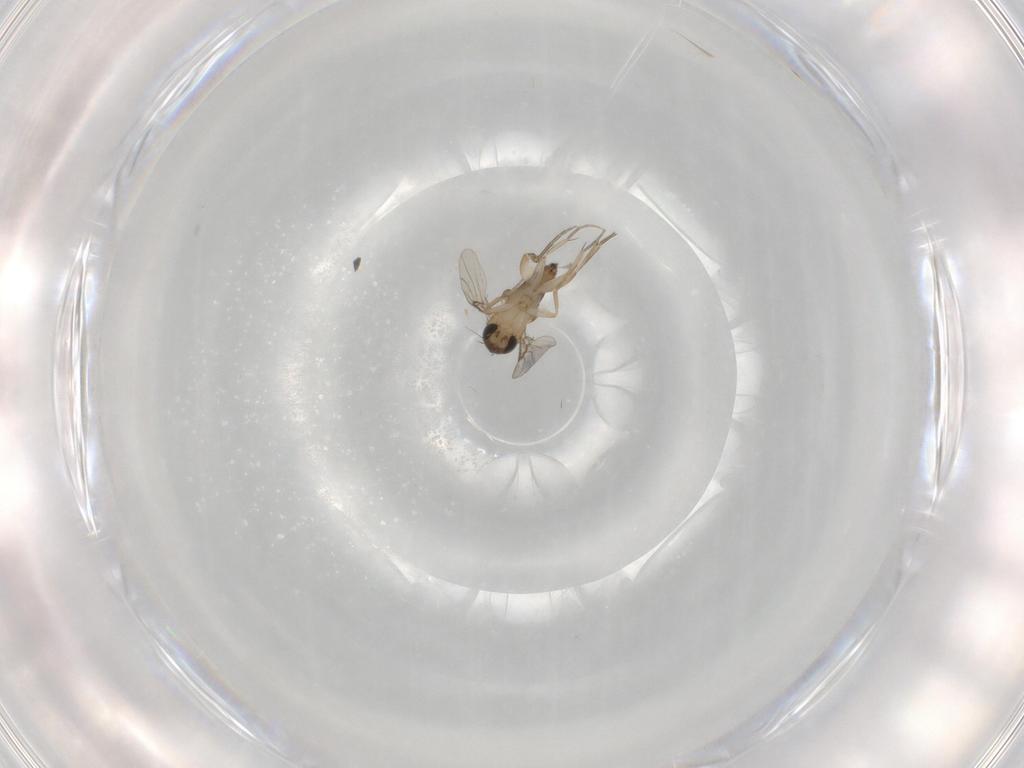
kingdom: Animalia
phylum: Arthropoda
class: Insecta
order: Diptera
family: Phoridae
